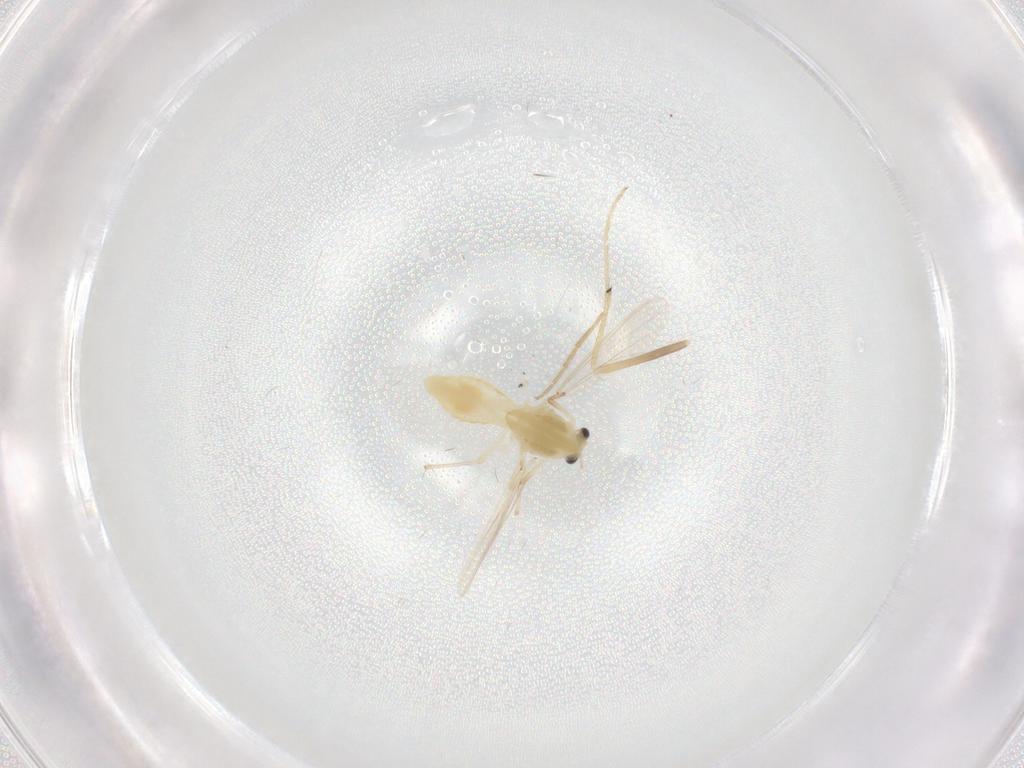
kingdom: Animalia
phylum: Arthropoda
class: Insecta
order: Diptera
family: Chironomidae
